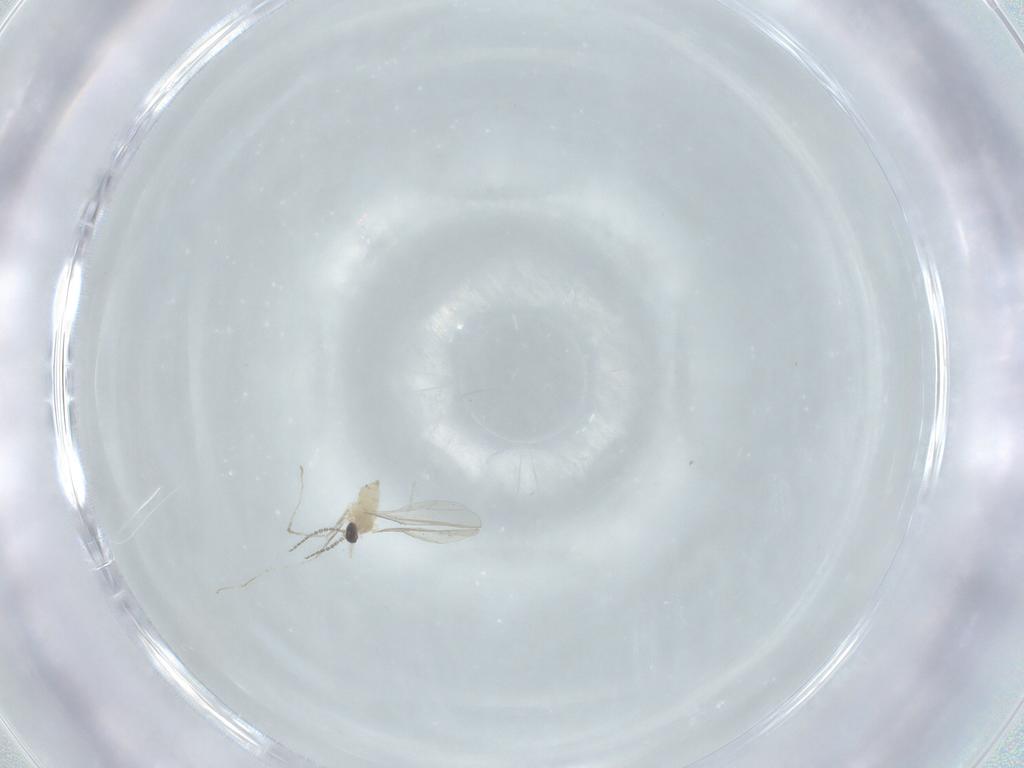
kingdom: Animalia
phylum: Arthropoda
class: Insecta
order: Diptera
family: Cecidomyiidae
